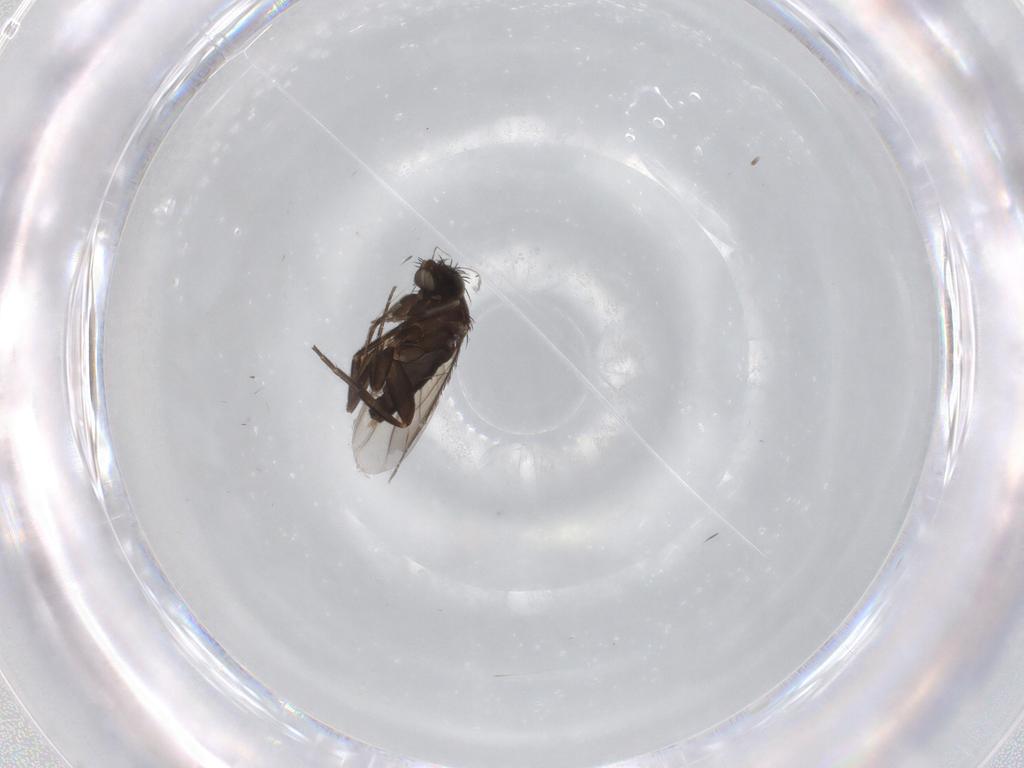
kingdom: Animalia
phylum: Arthropoda
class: Insecta
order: Diptera
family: Phoridae
